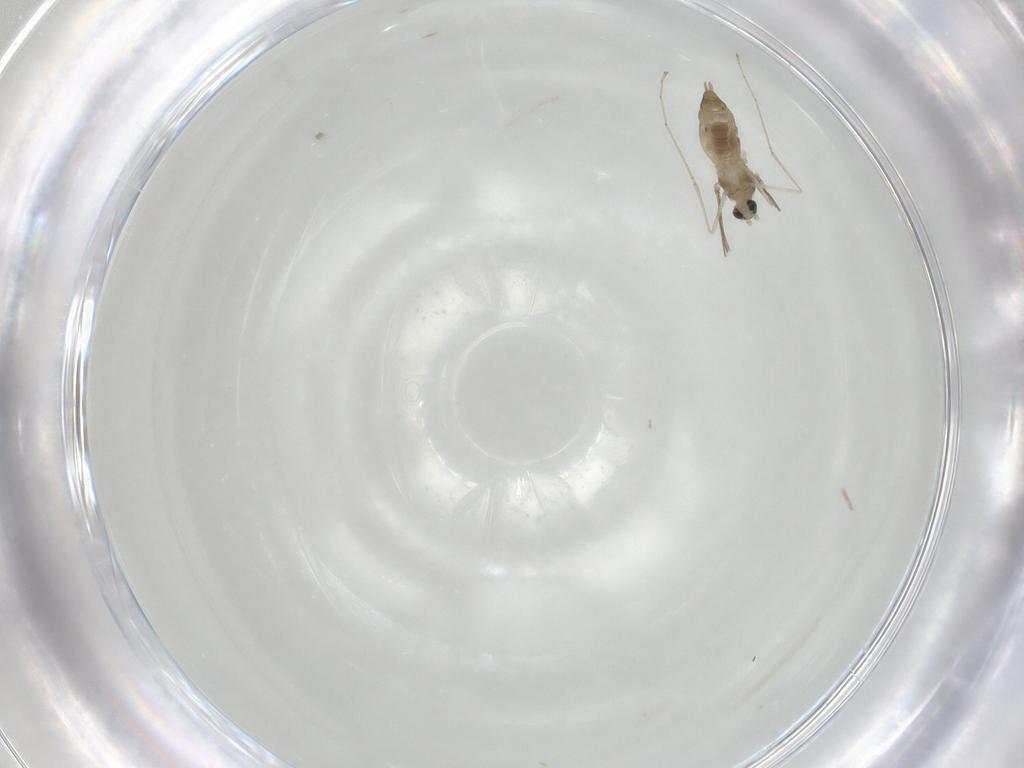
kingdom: Animalia
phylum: Arthropoda
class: Insecta
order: Diptera
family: Cecidomyiidae
